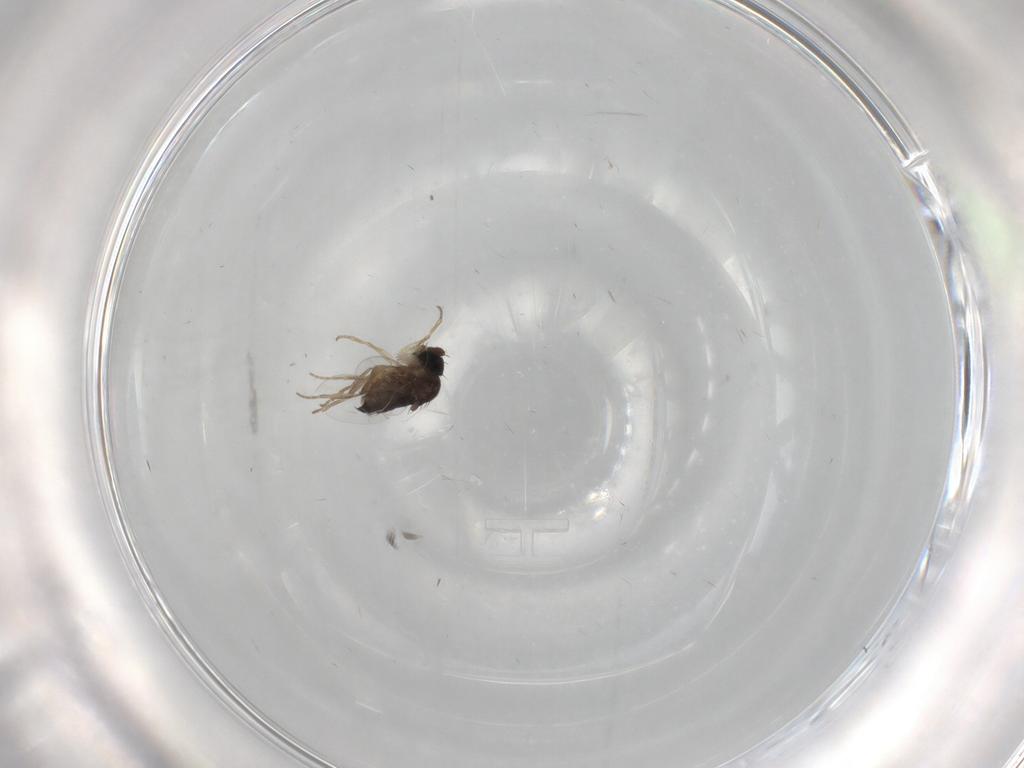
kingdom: Animalia
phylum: Arthropoda
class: Insecta
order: Diptera
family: Phoridae
